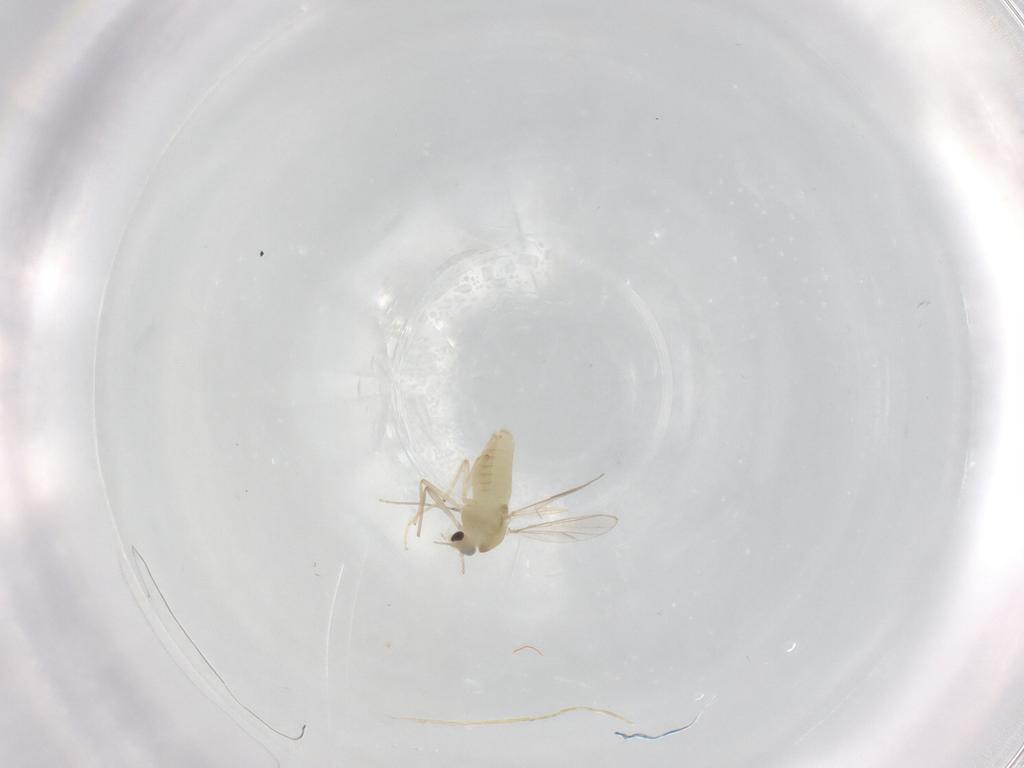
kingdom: Animalia
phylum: Arthropoda
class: Insecta
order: Diptera
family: Chironomidae
